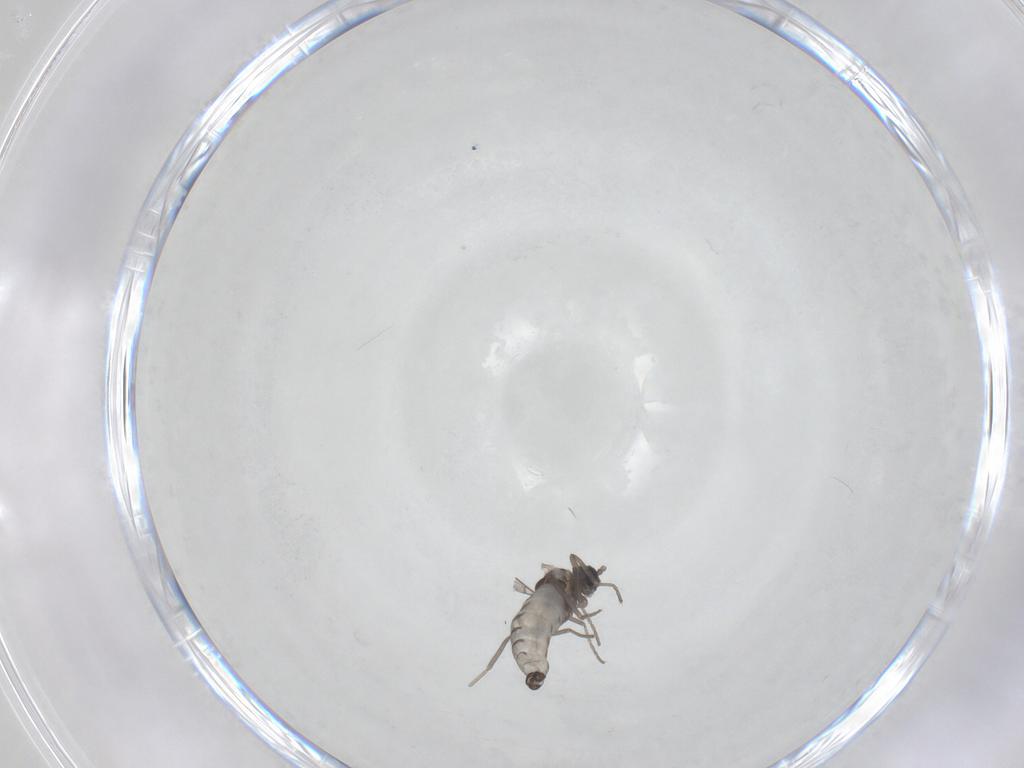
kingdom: Animalia
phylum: Arthropoda
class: Insecta
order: Diptera
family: Cecidomyiidae
